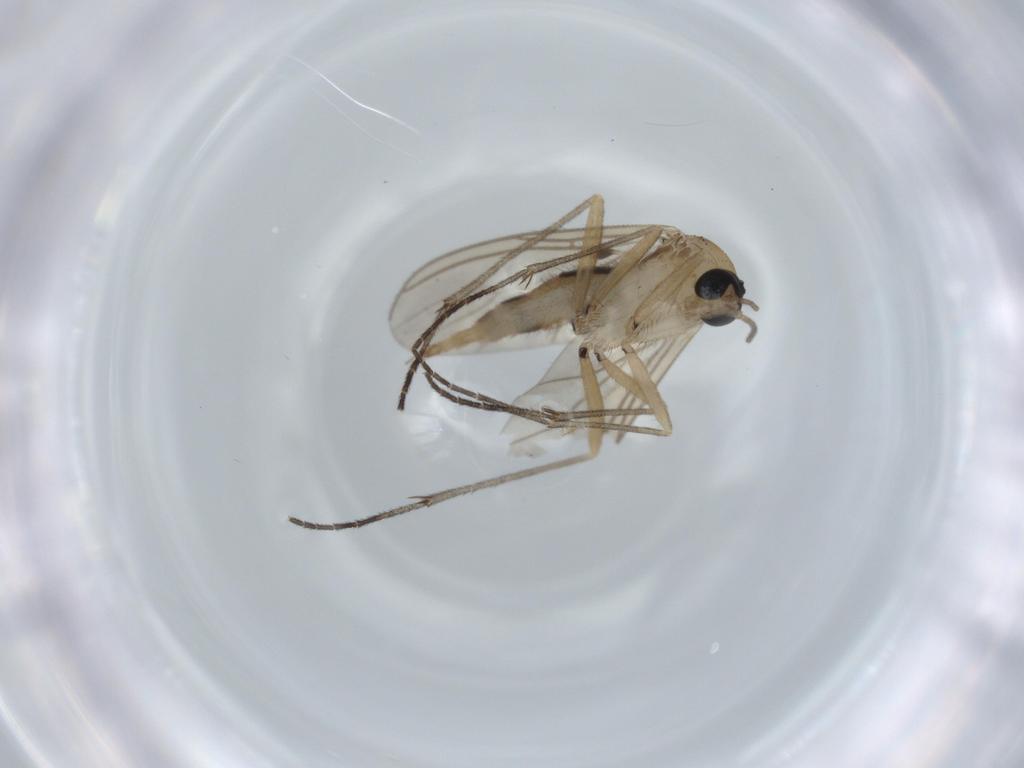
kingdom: Animalia
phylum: Arthropoda
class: Insecta
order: Diptera
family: Sciaridae
